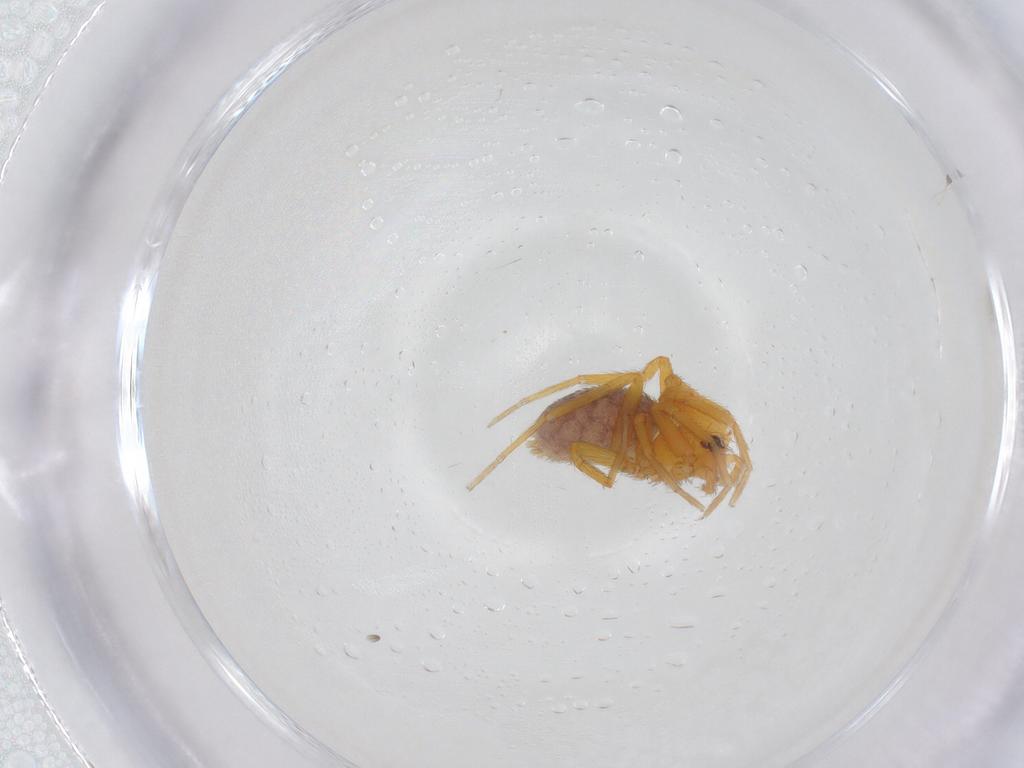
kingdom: Animalia
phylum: Arthropoda
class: Arachnida
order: Araneae
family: Oonopidae
